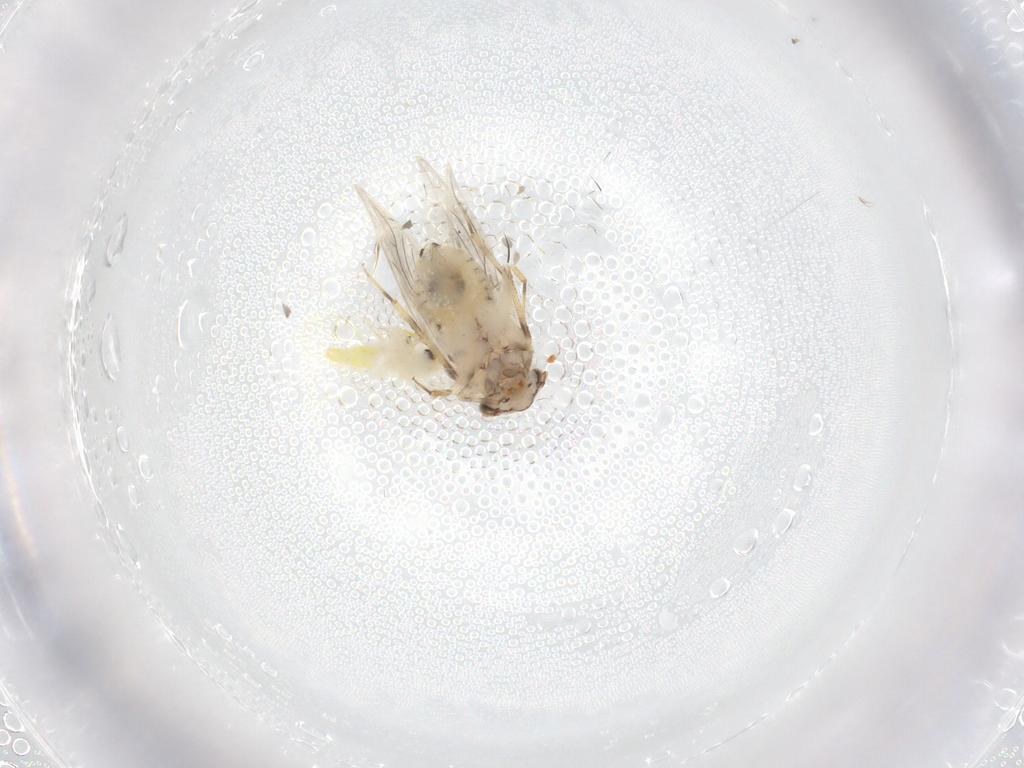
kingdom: Animalia
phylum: Arthropoda
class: Insecta
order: Psocodea
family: Lepidopsocidae
